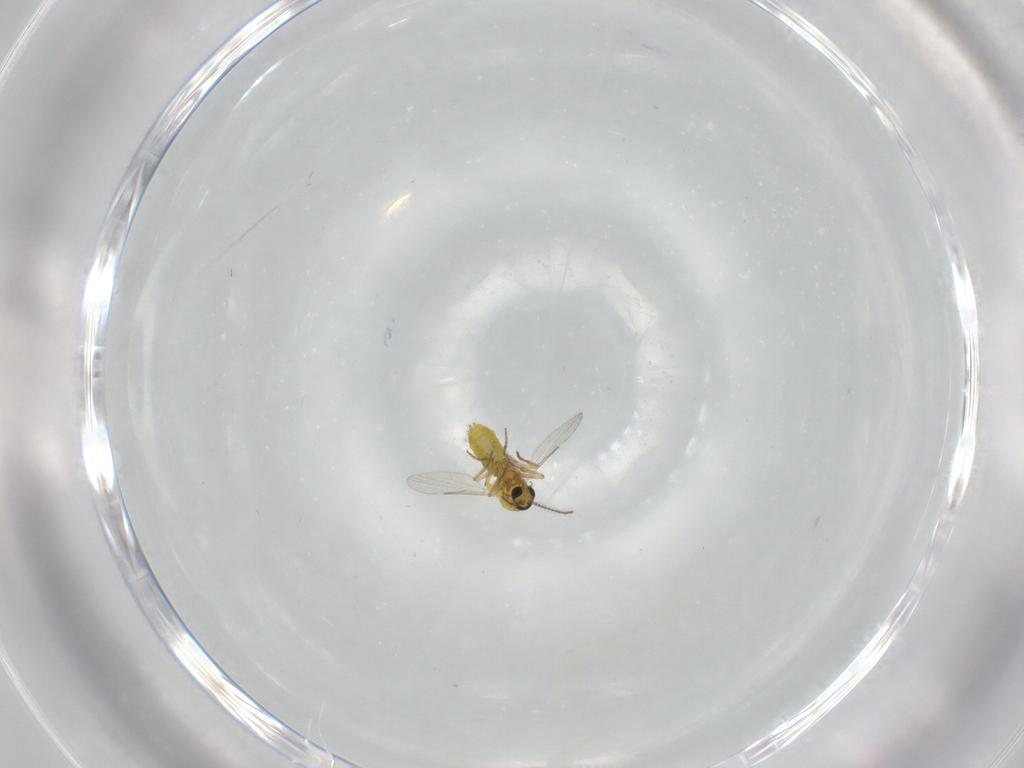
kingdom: Animalia
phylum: Arthropoda
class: Insecta
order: Diptera
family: Ceratopogonidae
